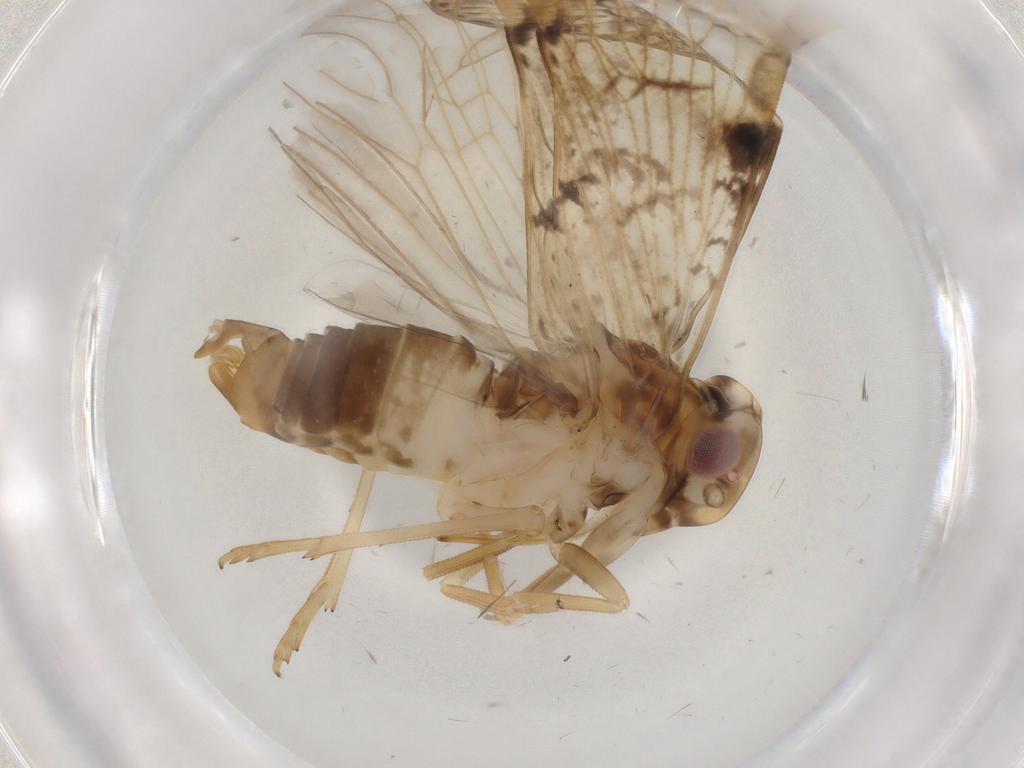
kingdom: Animalia
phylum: Arthropoda
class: Insecta
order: Hemiptera
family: Cixiidae
